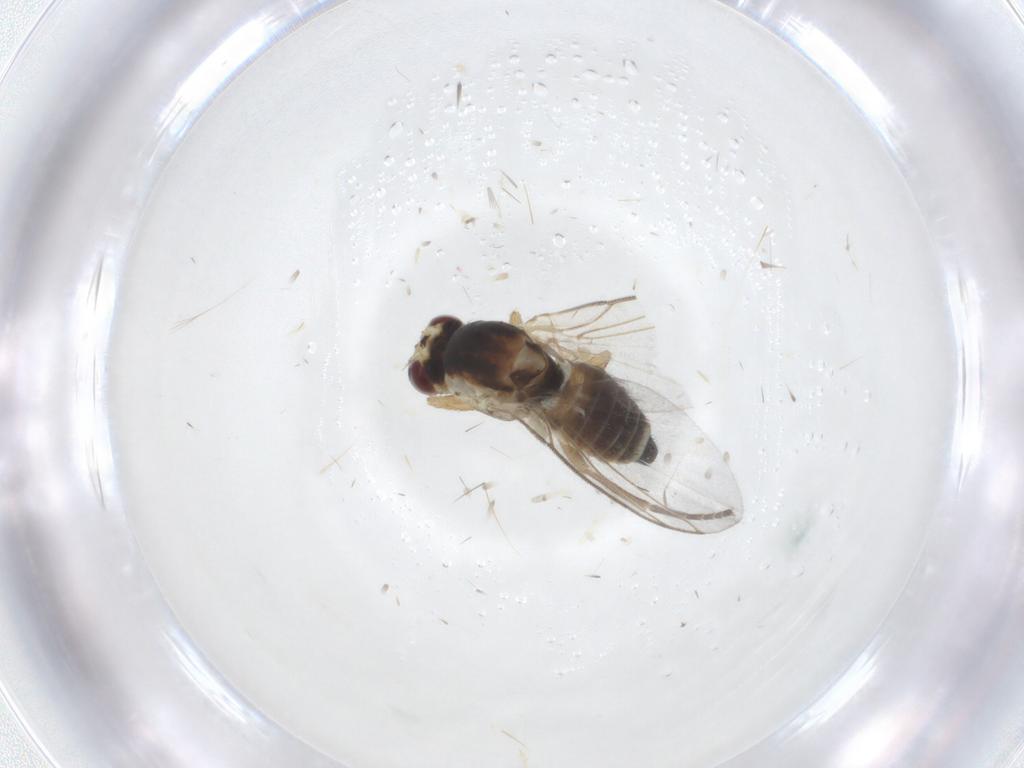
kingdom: Animalia
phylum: Arthropoda
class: Insecta
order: Diptera
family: Agromyzidae
